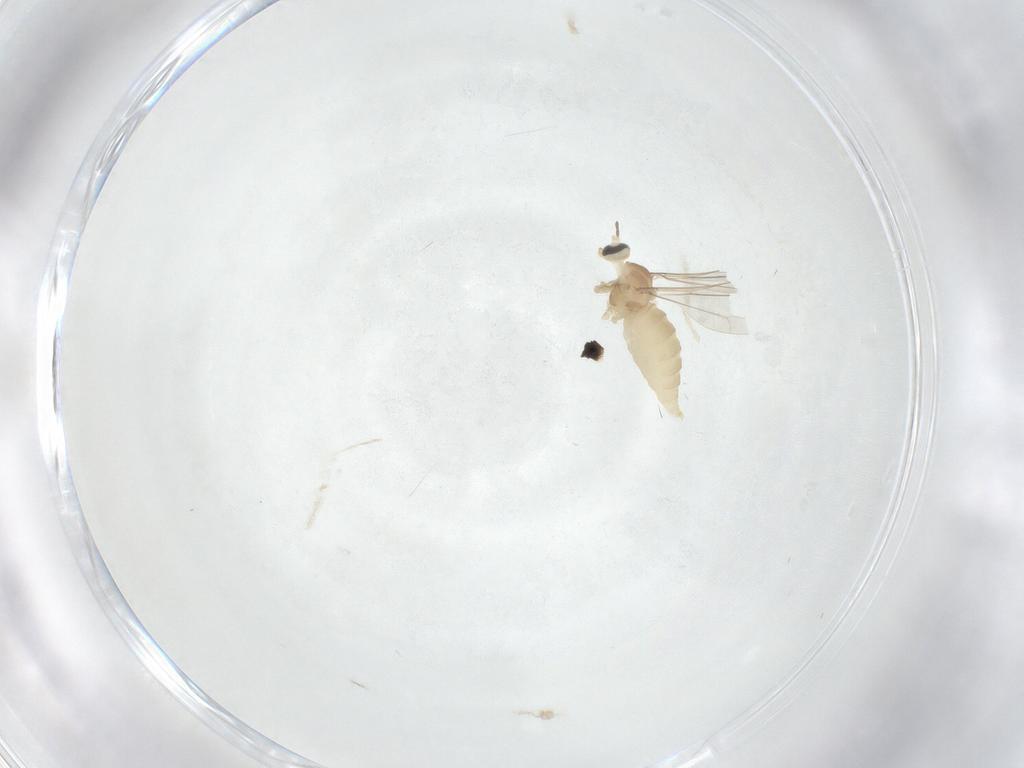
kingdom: Animalia
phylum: Arthropoda
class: Insecta
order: Diptera
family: Cecidomyiidae
